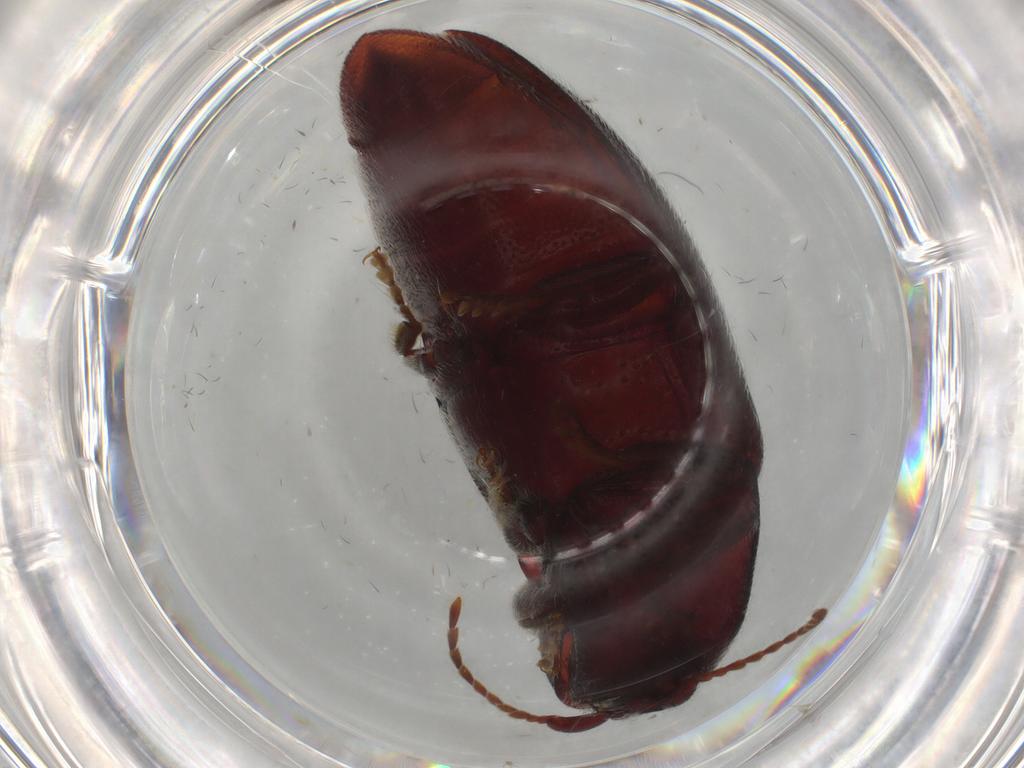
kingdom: Animalia
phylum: Arthropoda
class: Insecta
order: Coleoptera
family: Elateridae
